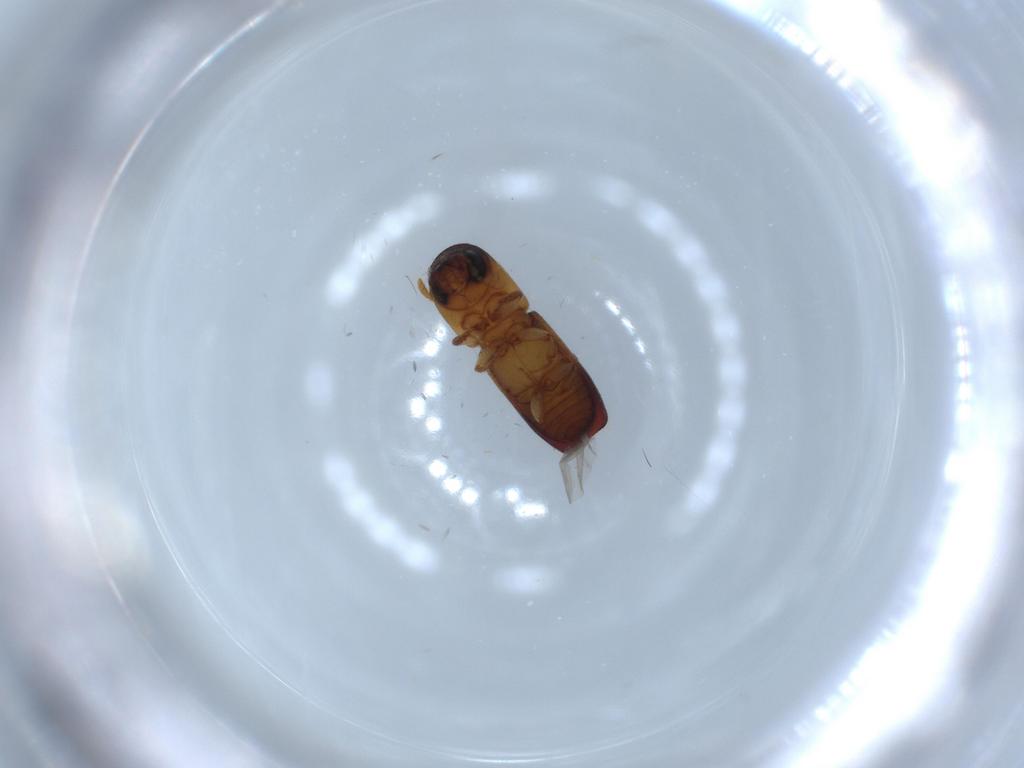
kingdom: Animalia
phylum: Arthropoda
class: Insecta
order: Coleoptera
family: Curculionidae
